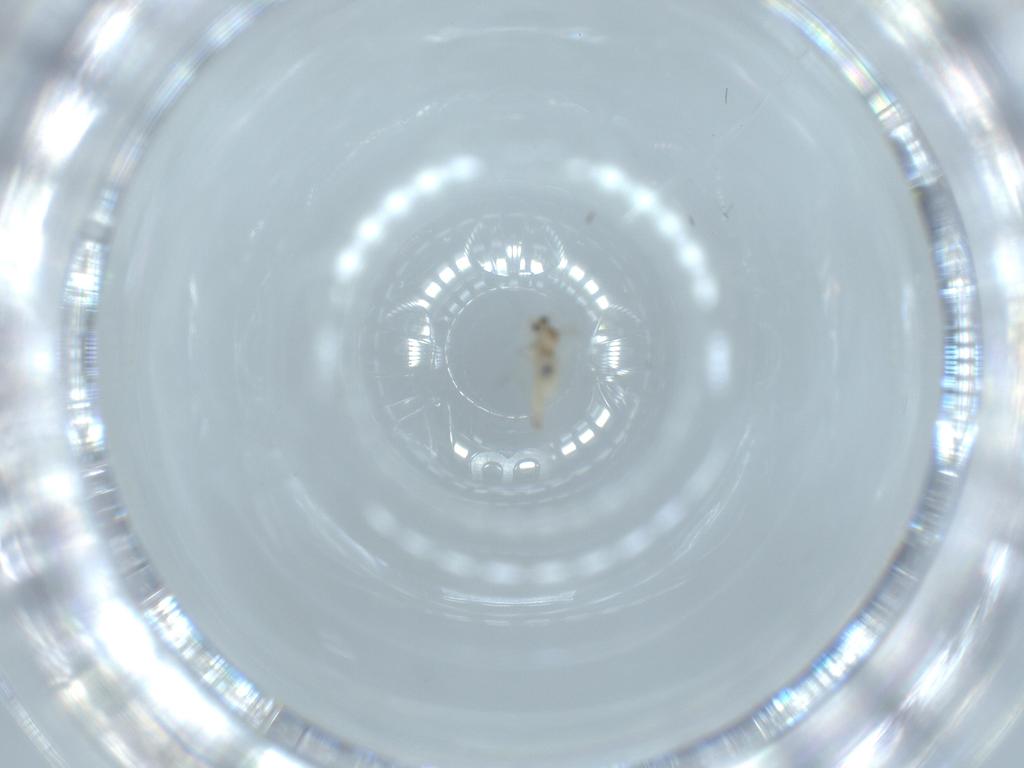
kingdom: Animalia
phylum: Arthropoda
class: Insecta
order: Diptera
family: Cecidomyiidae
